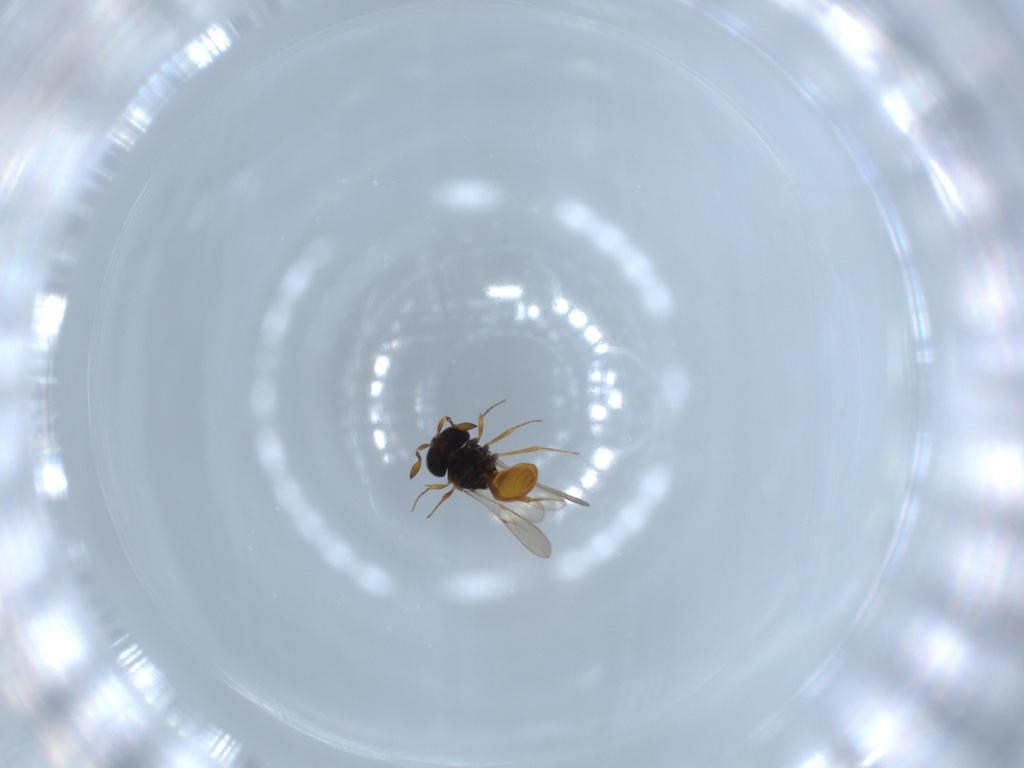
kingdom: Animalia
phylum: Arthropoda
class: Insecta
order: Hymenoptera
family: Scelionidae
